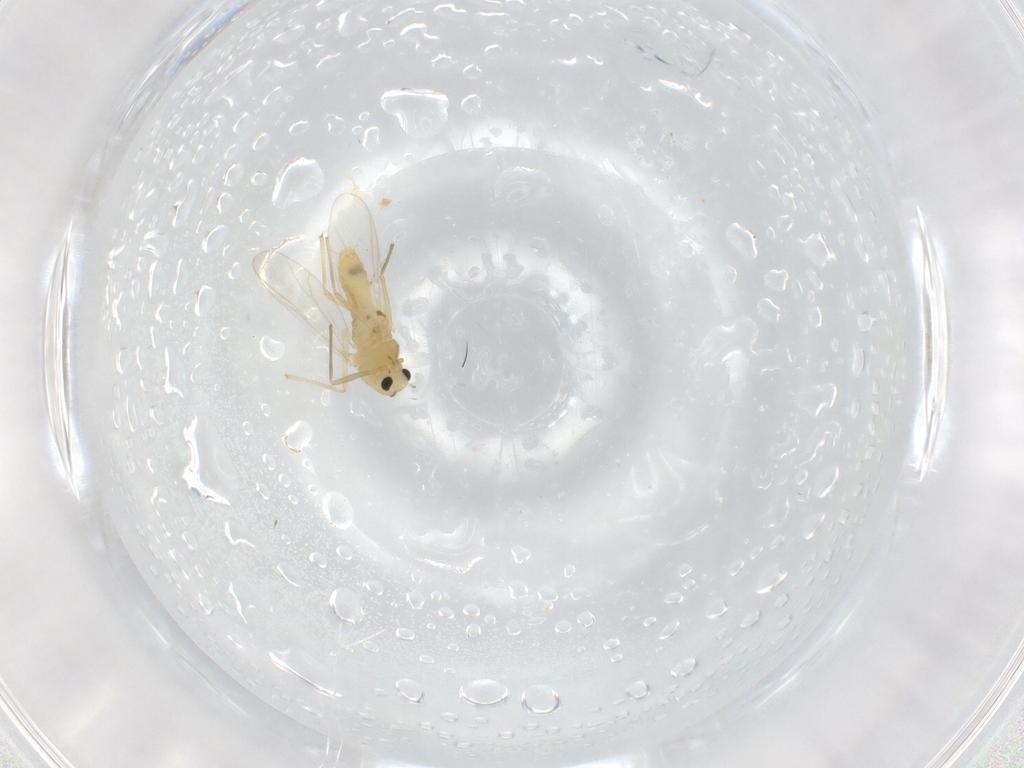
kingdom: Animalia
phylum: Arthropoda
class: Insecta
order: Diptera
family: Chironomidae
